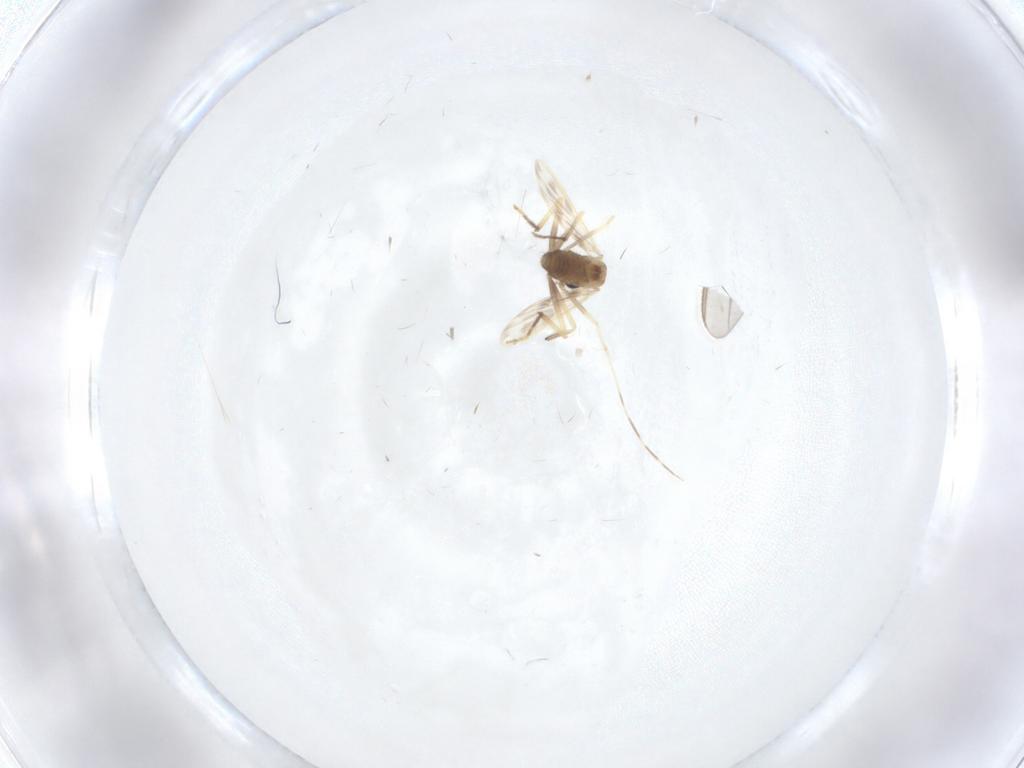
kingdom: Animalia
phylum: Arthropoda
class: Insecta
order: Diptera
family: Chironomidae
